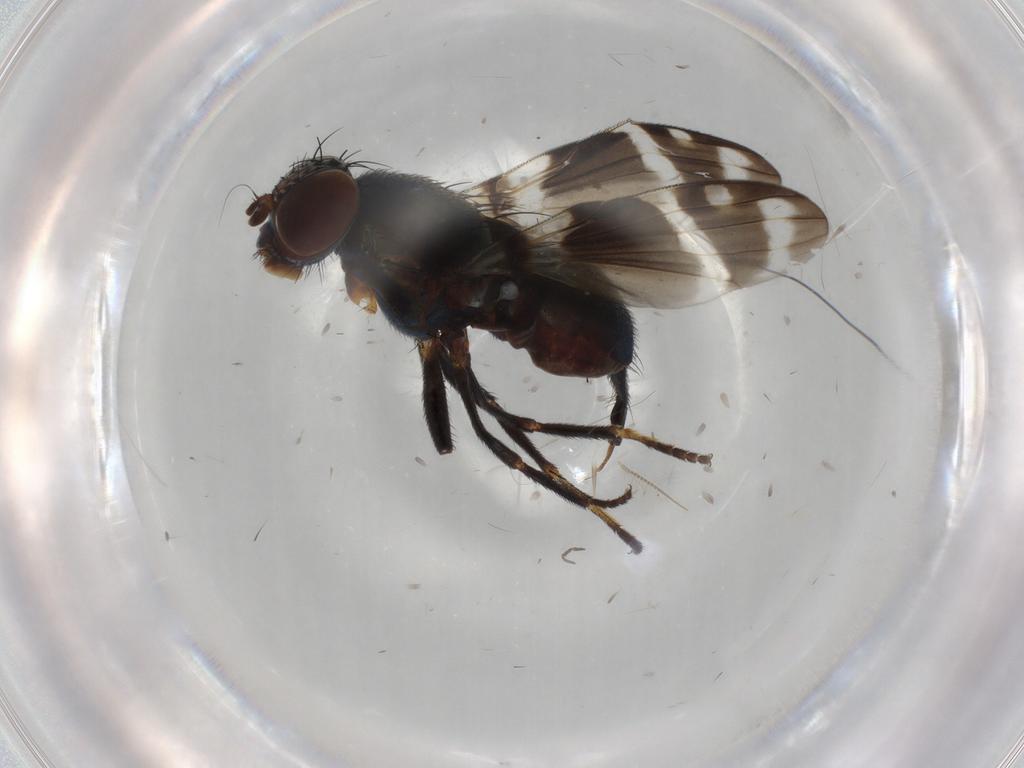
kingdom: Animalia
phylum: Arthropoda
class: Insecta
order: Diptera
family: Ulidiidae
